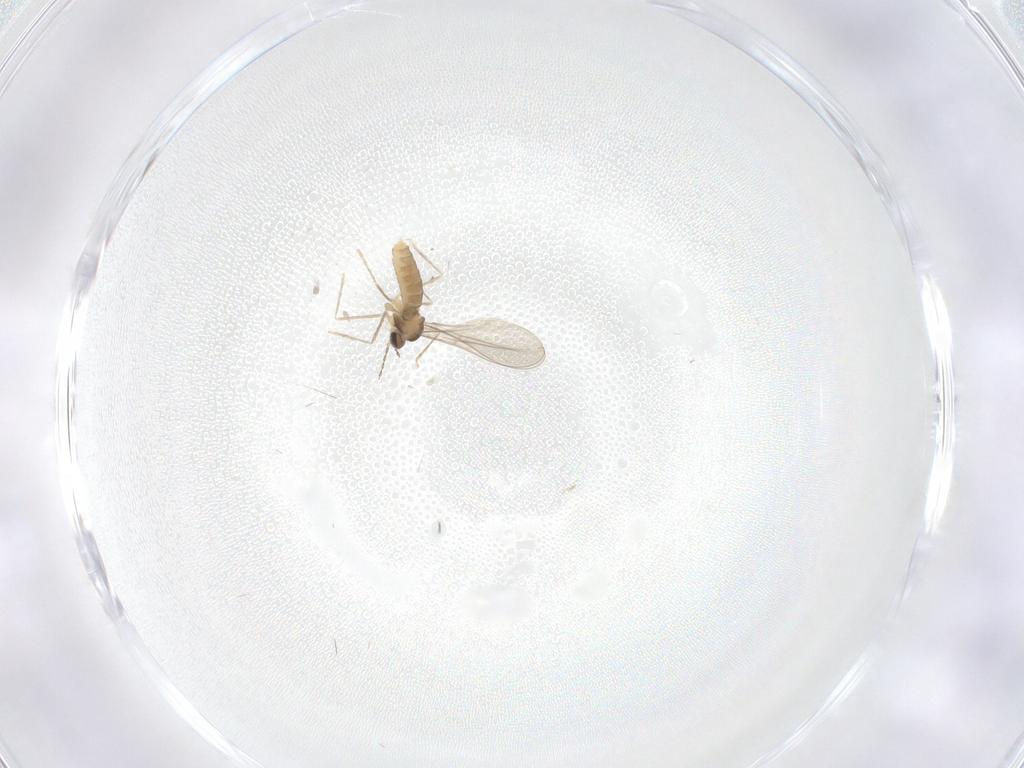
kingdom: Animalia
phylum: Arthropoda
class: Insecta
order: Diptera
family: Cecidomyiidae
